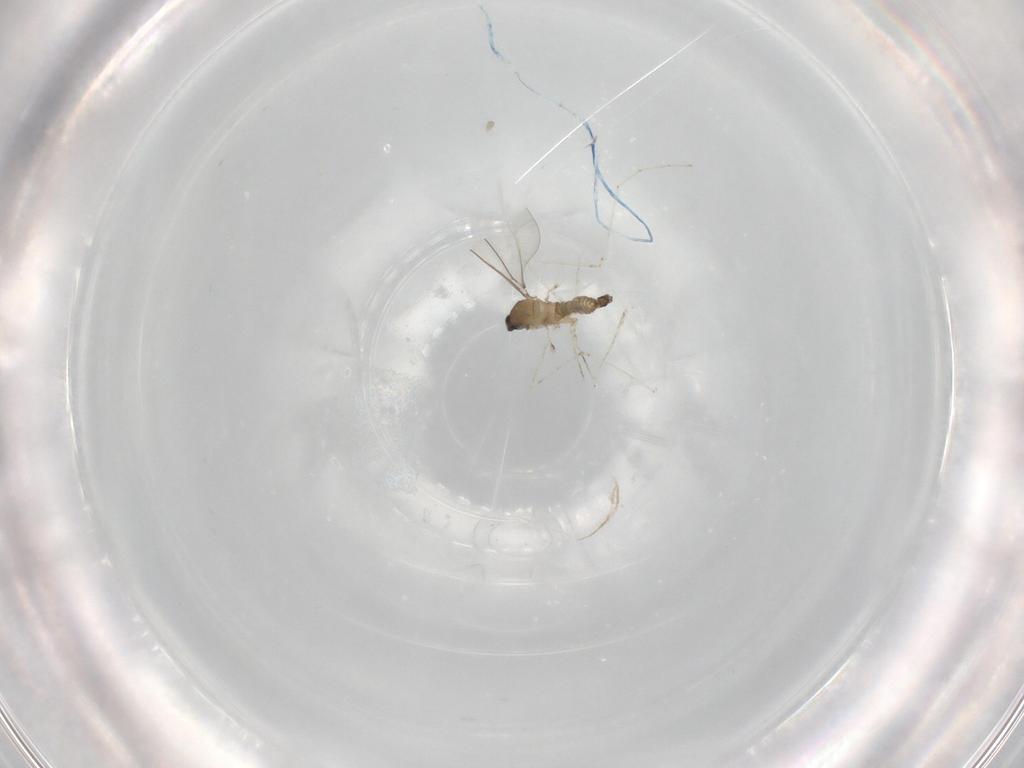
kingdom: Animalia
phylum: Arthropoda
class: Insecta
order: Diptera
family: Cecidomyiidae
